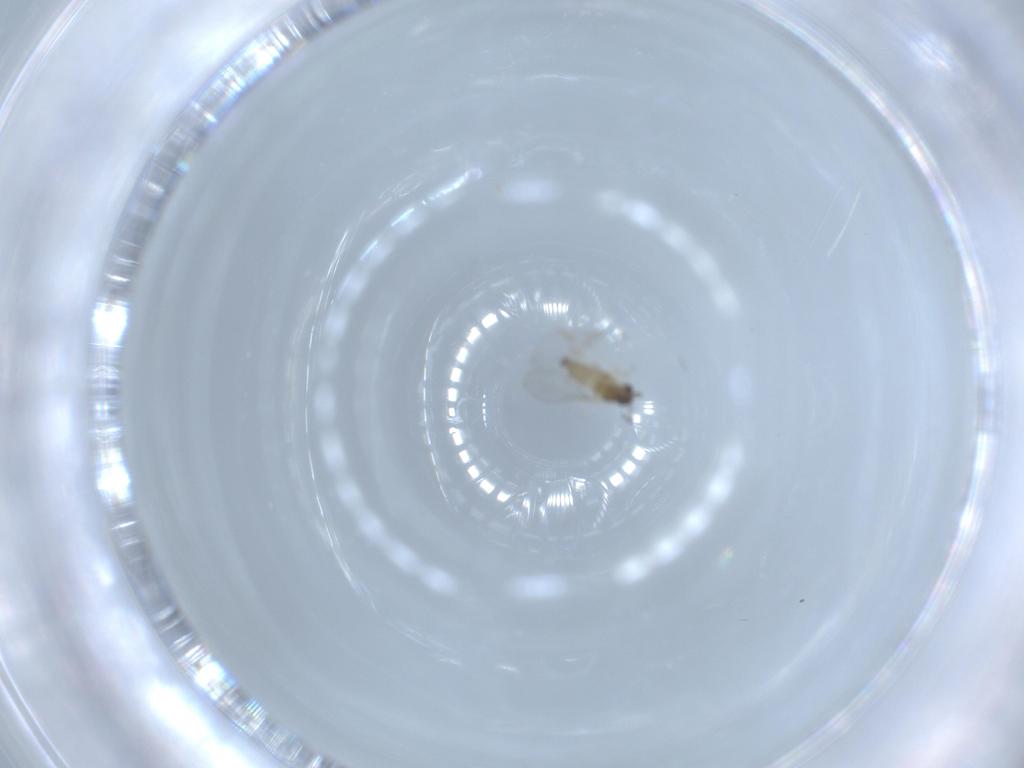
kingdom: Animalia
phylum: Arthropoda
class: Insecta
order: Diptera
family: Cecidomyiidae
